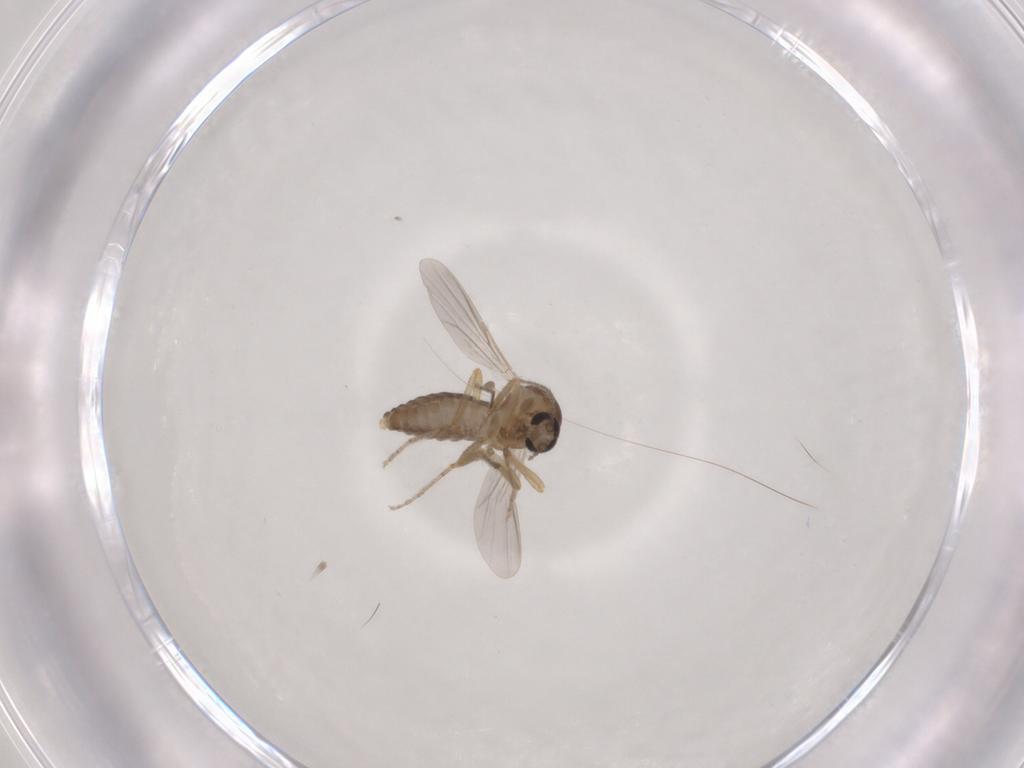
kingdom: Animalia
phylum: Arthropoda
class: Insecta
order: Diptera
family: Ceratopogonidae
